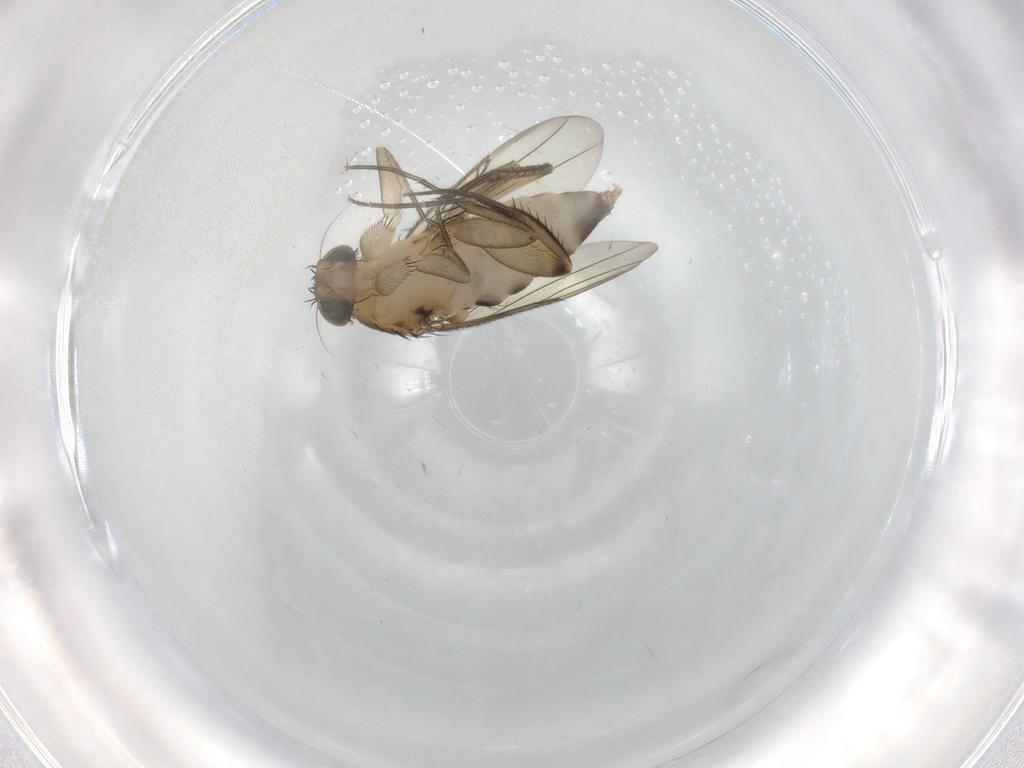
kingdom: Animalia
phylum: Arthropoda
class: Insecta
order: Diptera
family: Phoridae
